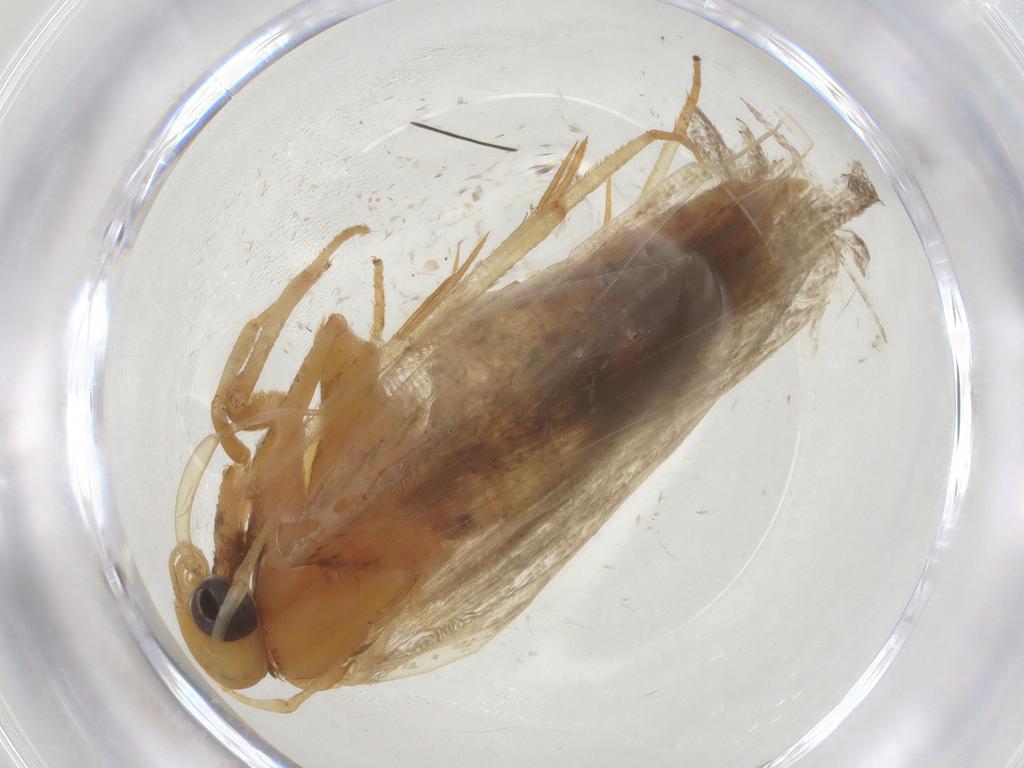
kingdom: Animalia
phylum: Arthropoda
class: Insecta
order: Lepidoptera
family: Autostichidae
